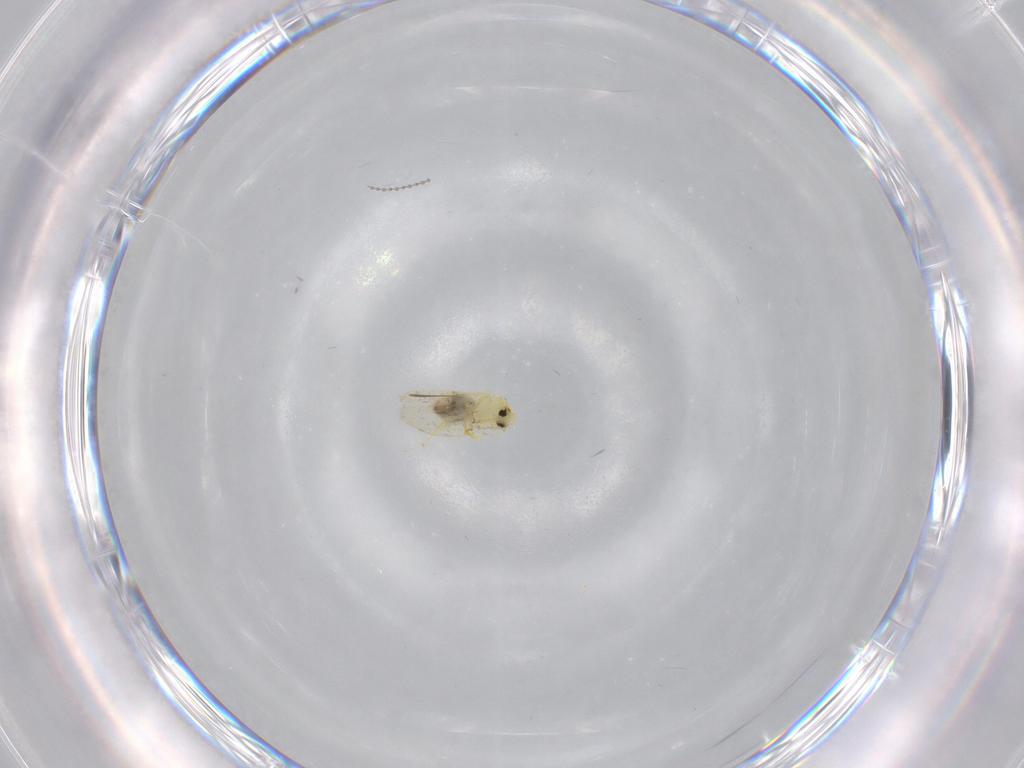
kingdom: Animalia
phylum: Arthropoda
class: Insecta
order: Hemiptera
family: Aleyrodidae
